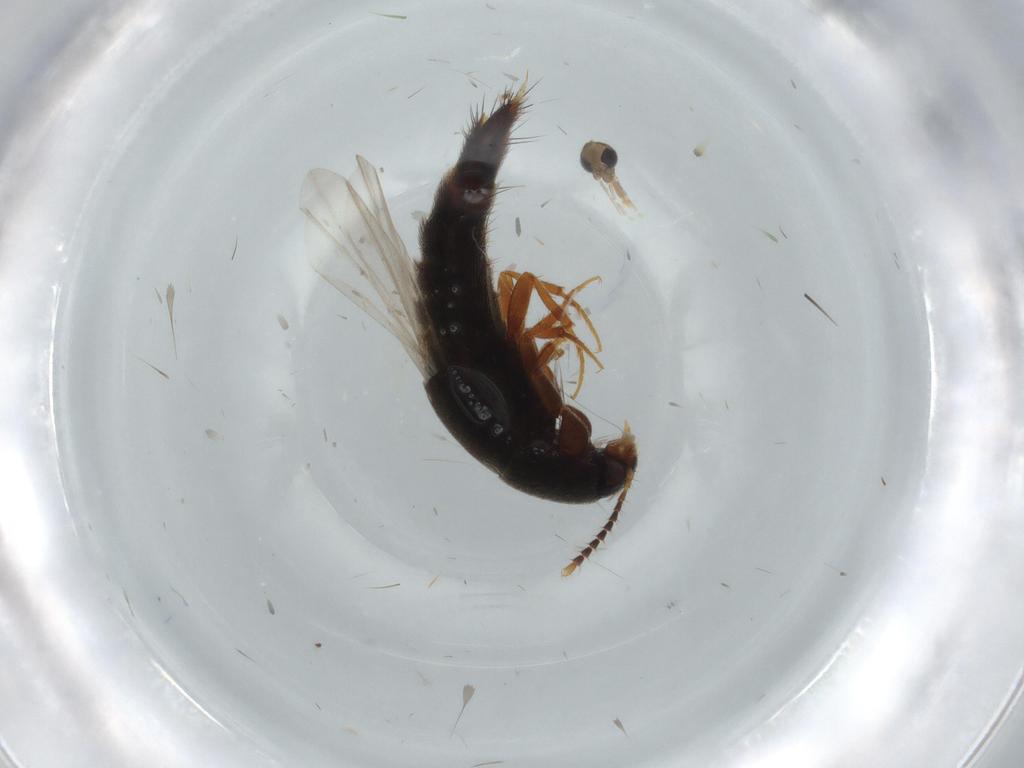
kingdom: Animalia
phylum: Arthropoda
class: Insecta
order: Coleoptera
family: Staphylinidae
